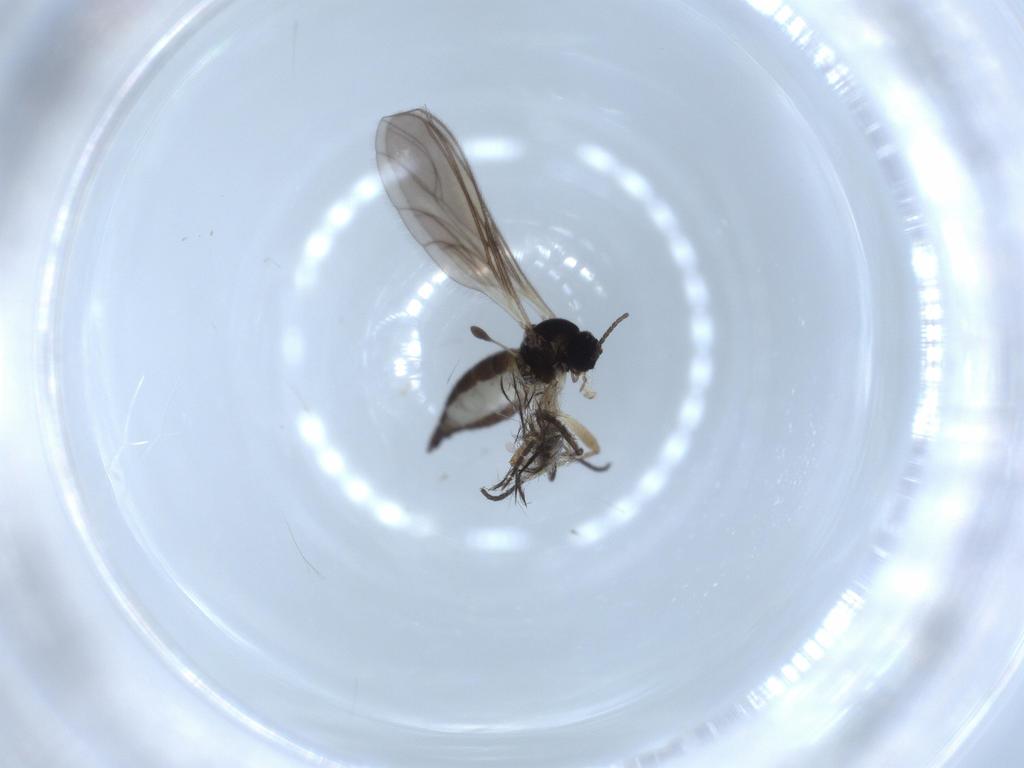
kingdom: Animalia
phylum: Arthropoda
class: Insecta
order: Diptera
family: Sciaridae
